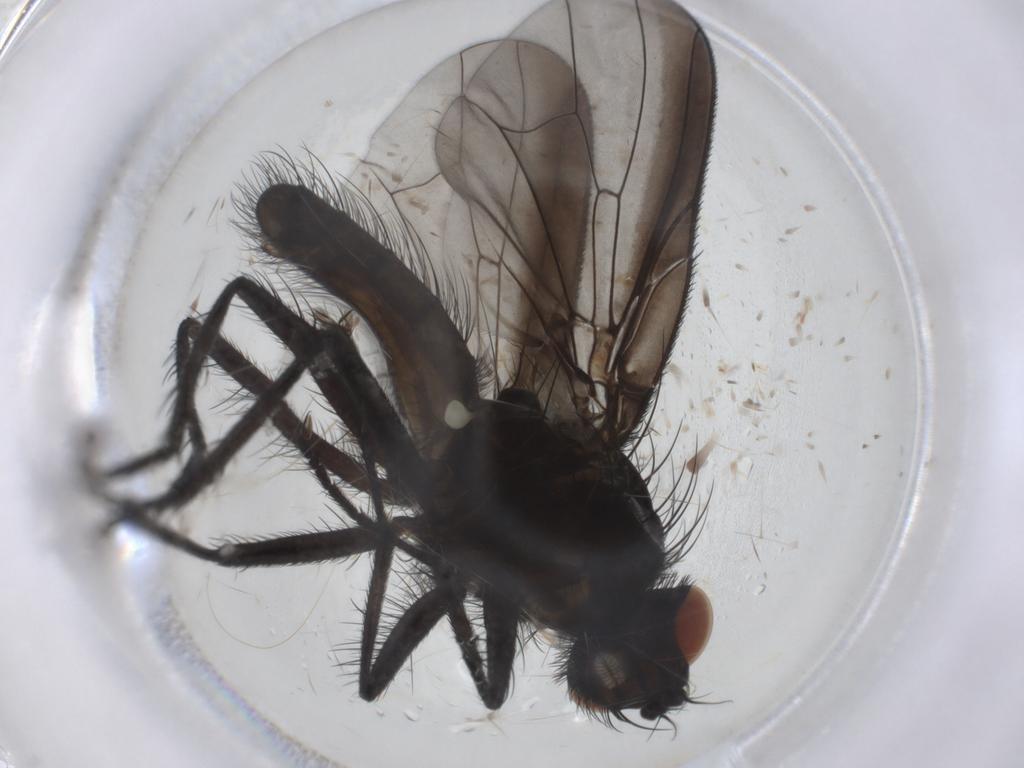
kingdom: Animalia
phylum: Arthropoda
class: Insecta
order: Diptera
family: Anthomyiidae
